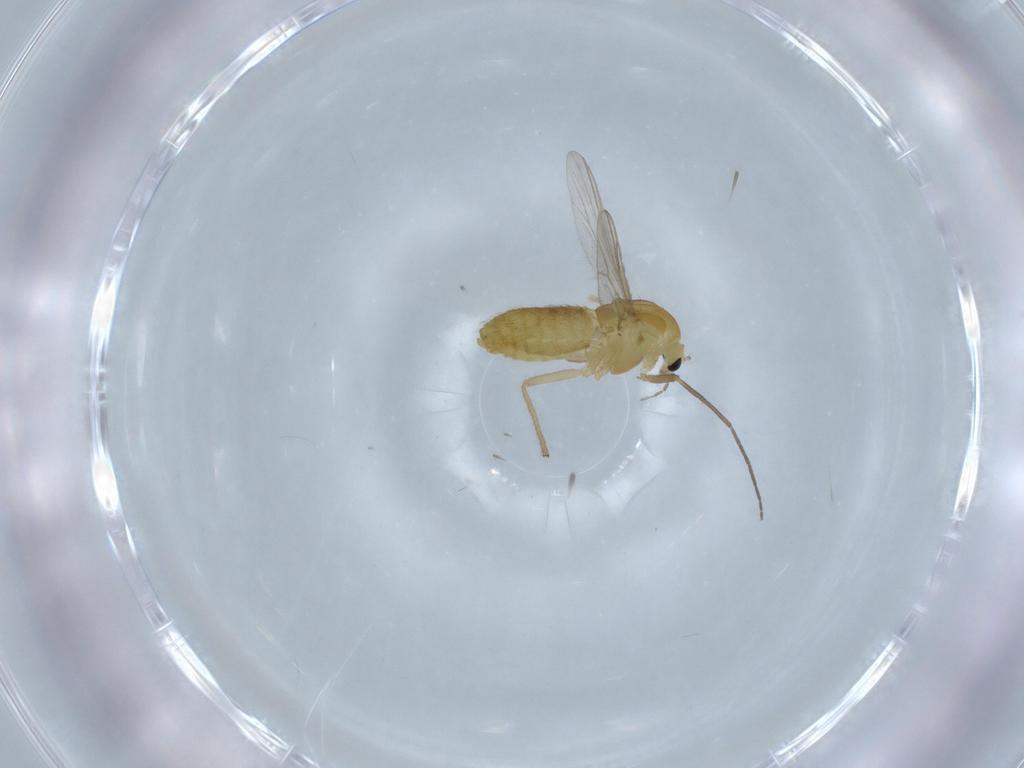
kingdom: Animalia
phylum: Arthropoda
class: Insecta
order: Diptera
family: Chironomidae
